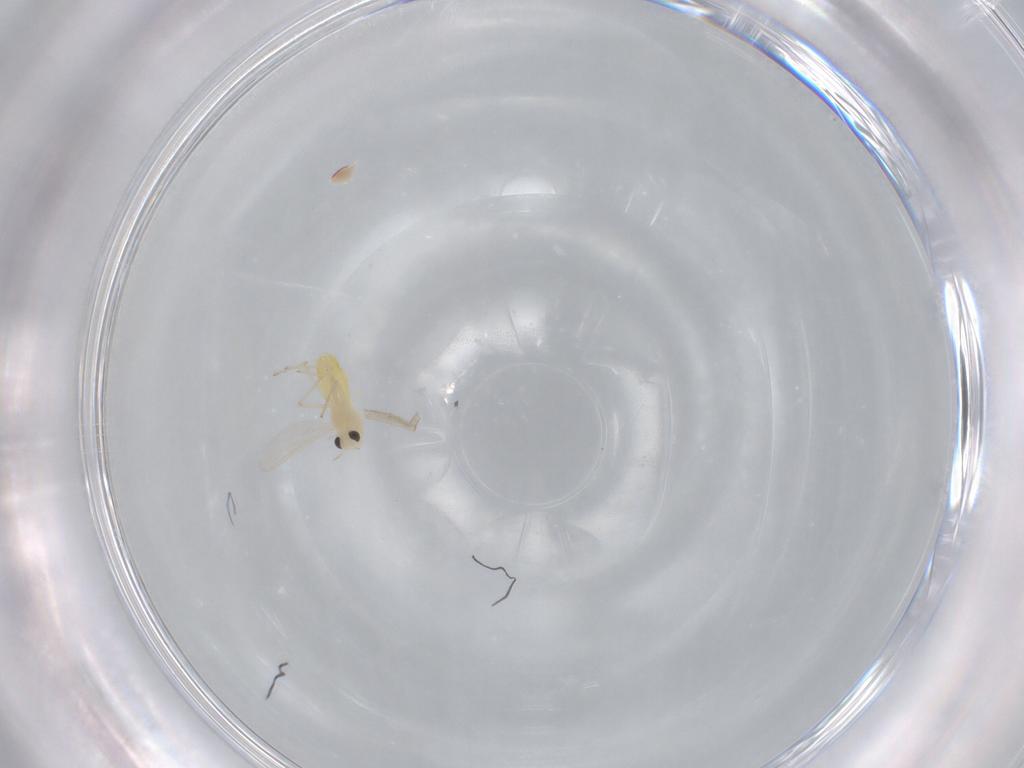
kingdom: Animalia
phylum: Arthropoda
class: Insecta
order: Diptera
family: Chironomidae
